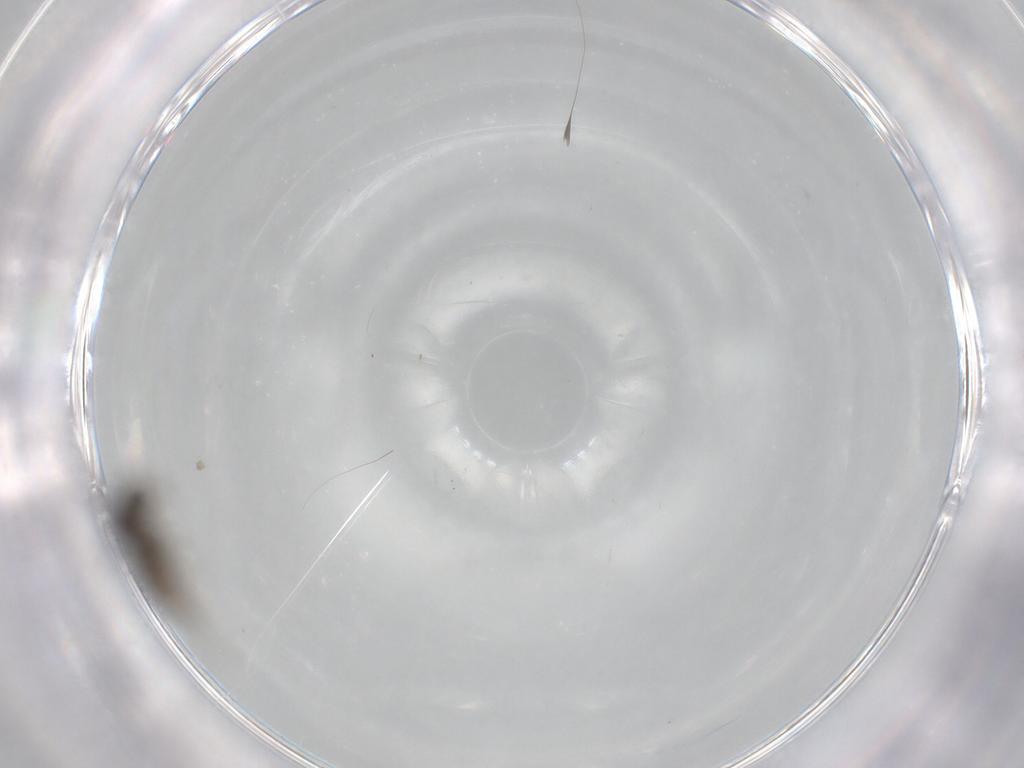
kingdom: Animalia
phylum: Arthropoda
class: Insecta
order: Diptera
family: Sciaridae
